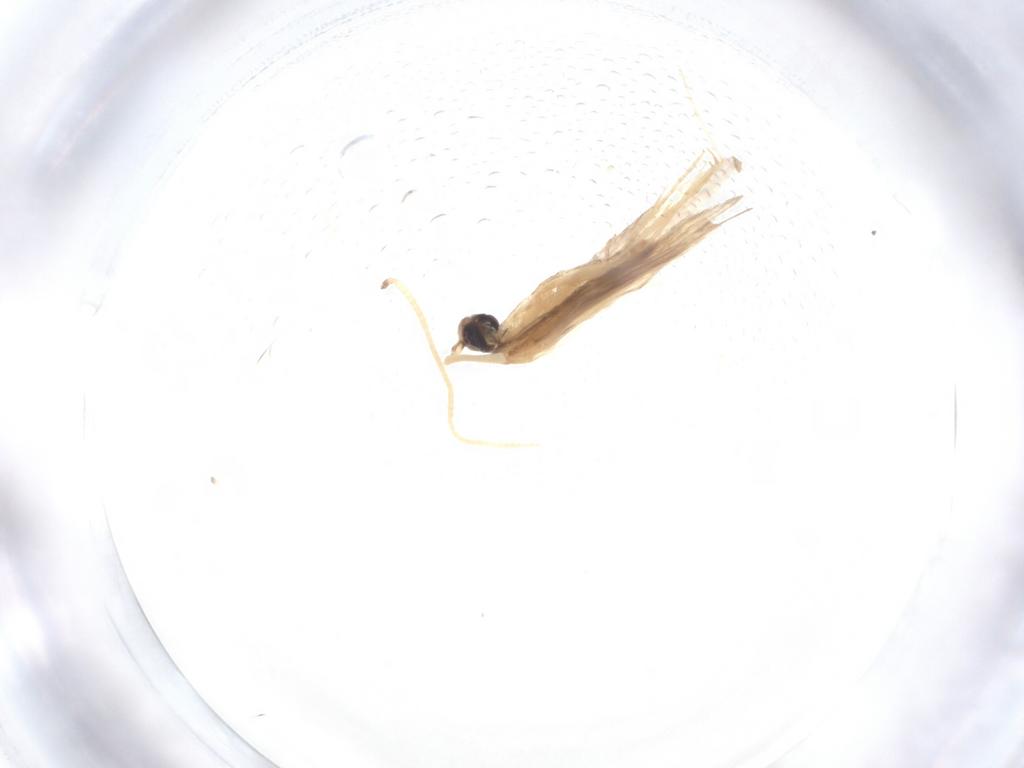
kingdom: Animalia
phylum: Arthropoda
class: Insecta
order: Trichoptera
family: Hydroptilidae
